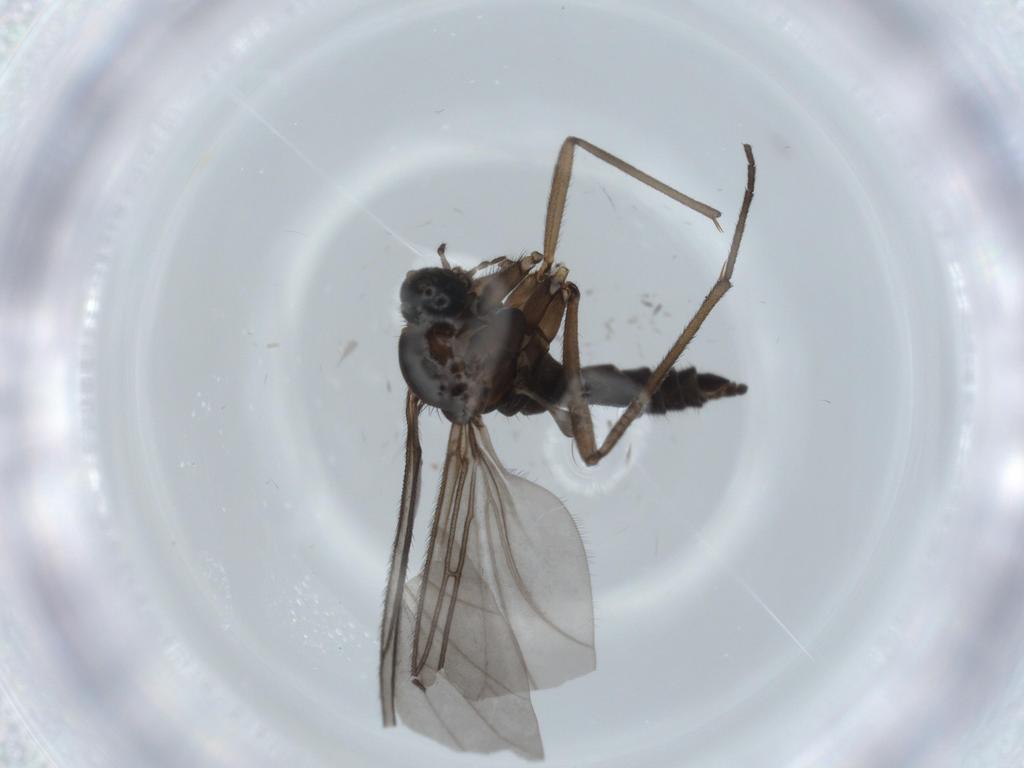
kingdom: Animalia
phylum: Arthropoda
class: Insecta
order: Diptera
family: Sciaridae
